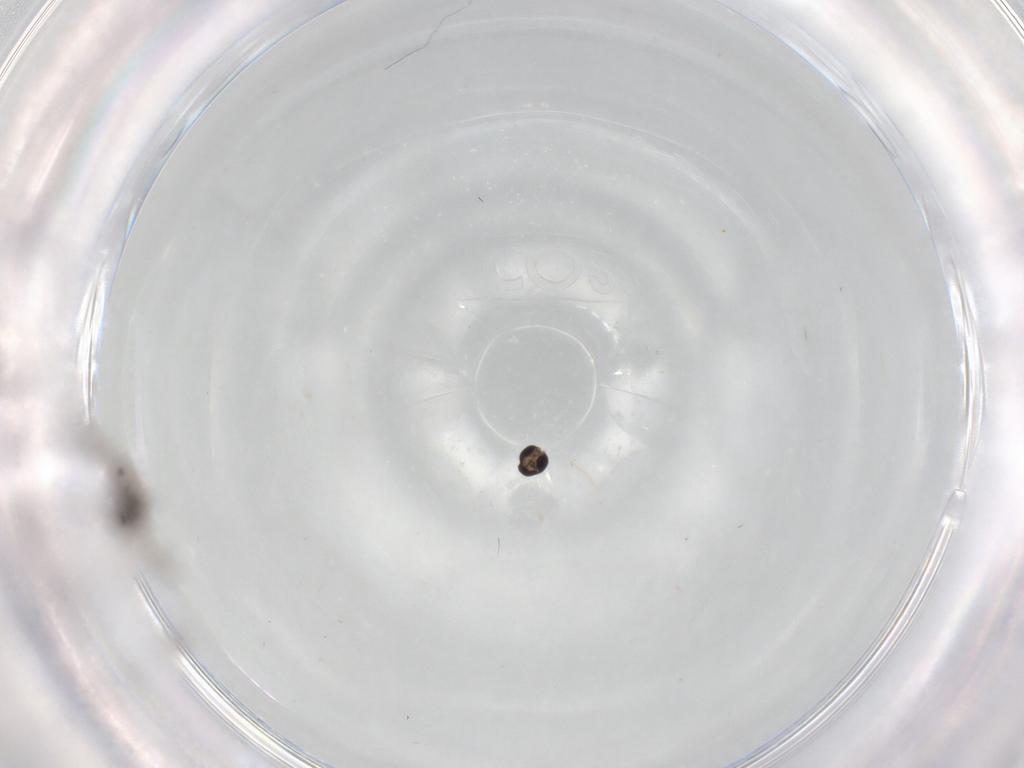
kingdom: Animalia
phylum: Arthropoda
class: Insecta
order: Diptera
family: Cecidomyiidae
